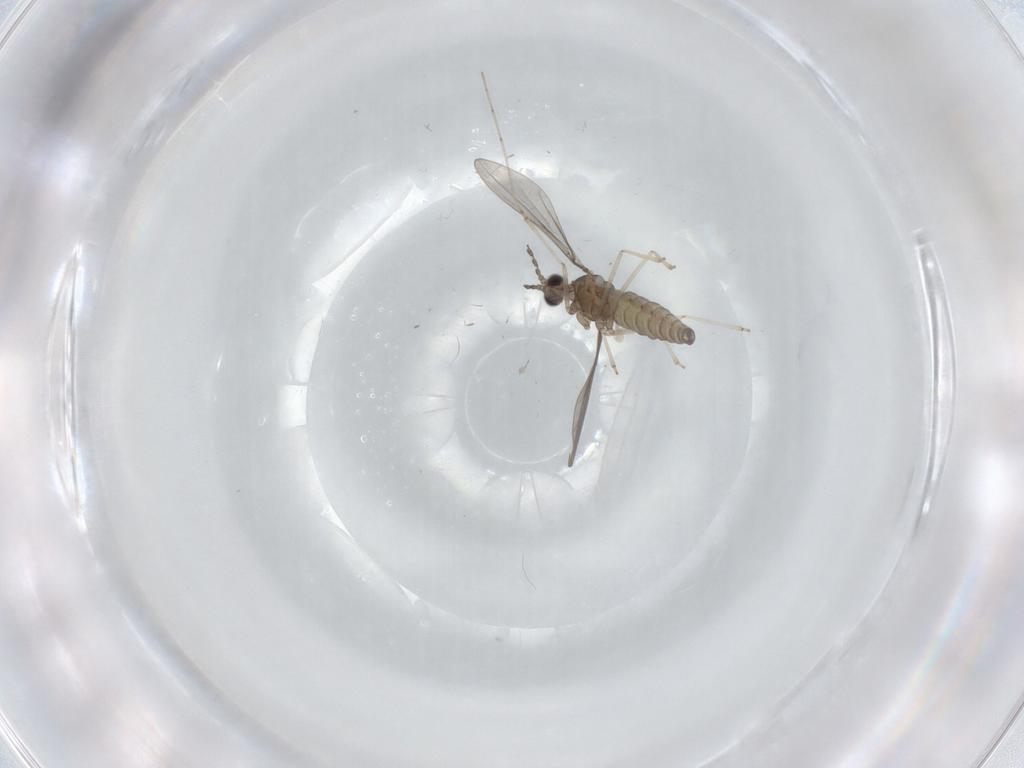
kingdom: Animalia
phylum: Arthropoda
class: Insecta
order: Diptera
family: Cecidomyiidae
